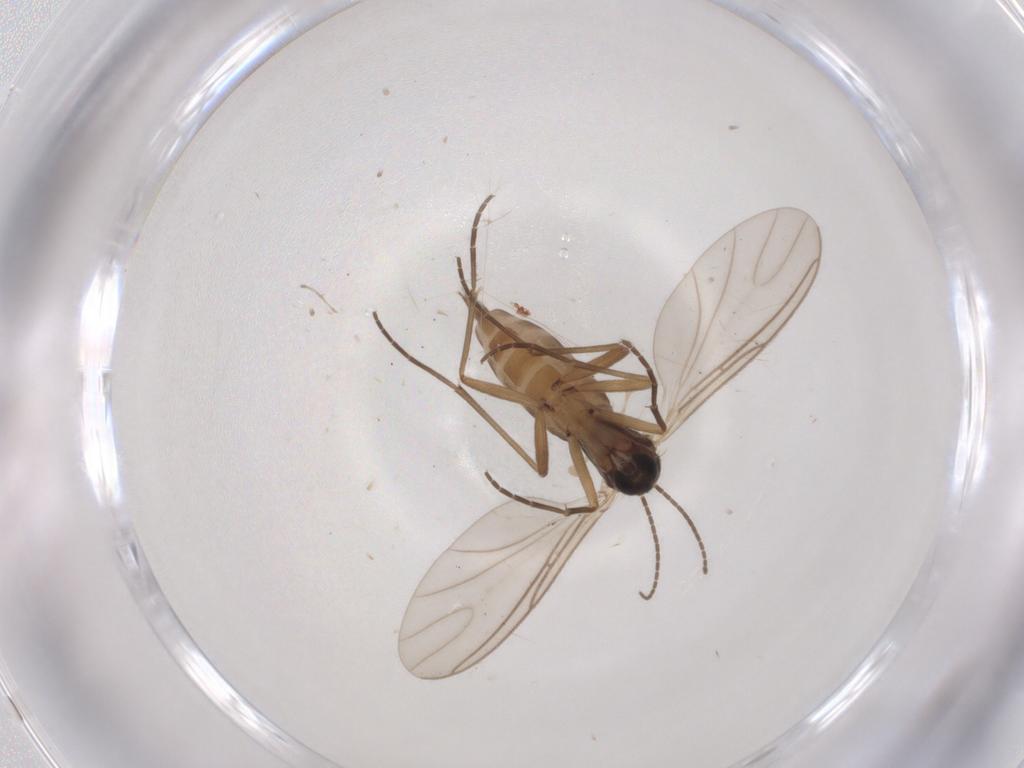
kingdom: Animalia
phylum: Arthropoda
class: Insecta
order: Diptera
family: Sciaridae
